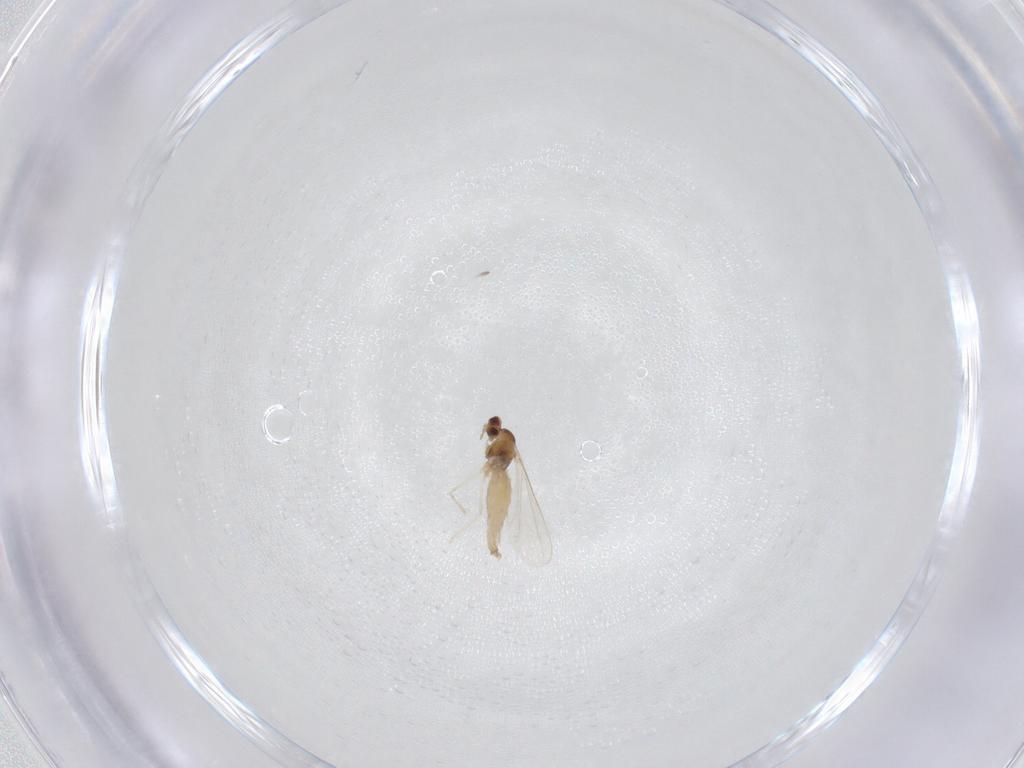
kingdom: Animalia
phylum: Arthropoda
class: Insecta
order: Diptera
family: Cecidomyiidae
